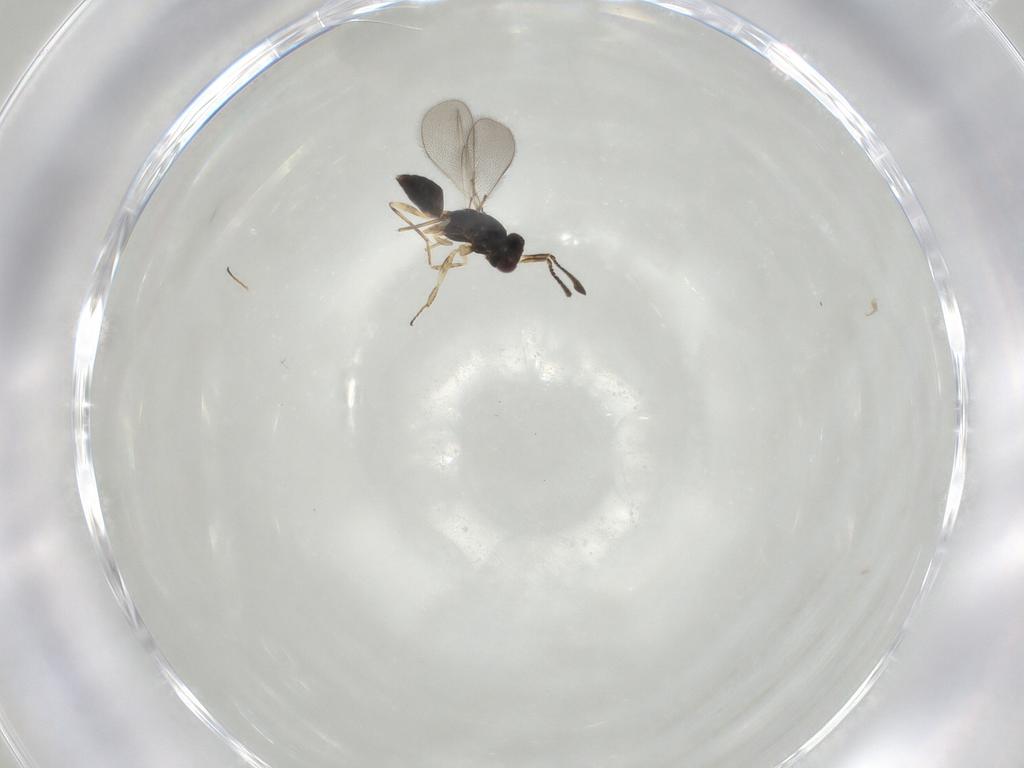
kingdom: Animalia
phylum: Arthropoda
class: Insecta
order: Hymenoptera
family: Mymaridae
